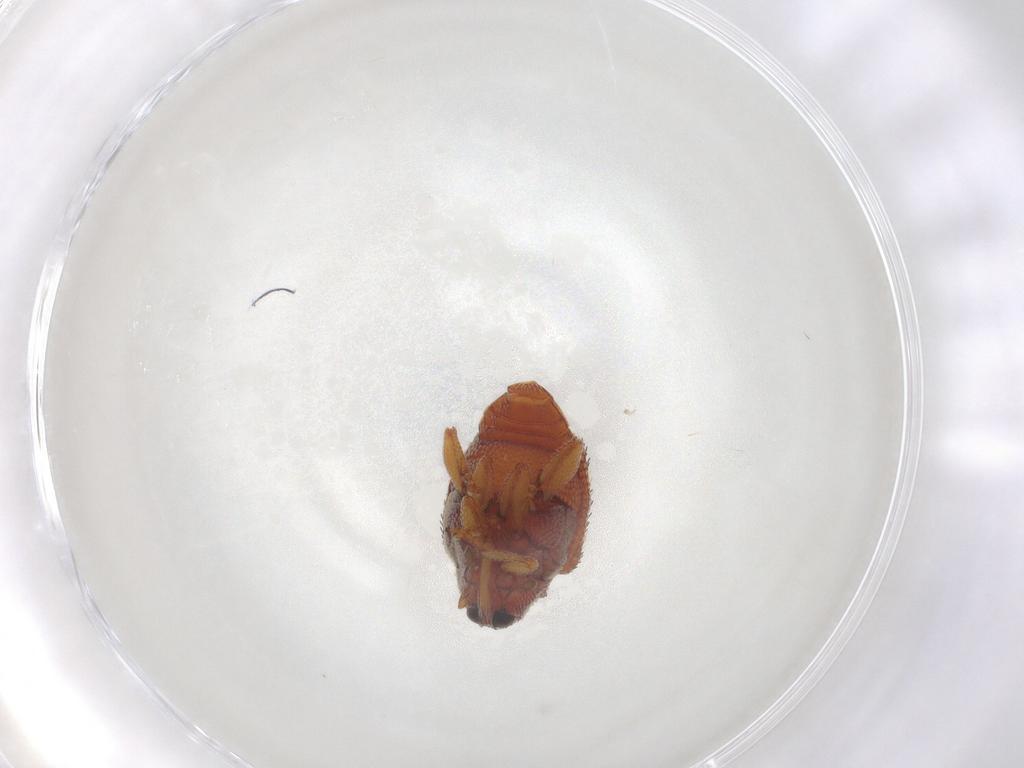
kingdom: Animalia
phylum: Arthropoda
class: Insecta
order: Coleoptera
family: Curculionidae
